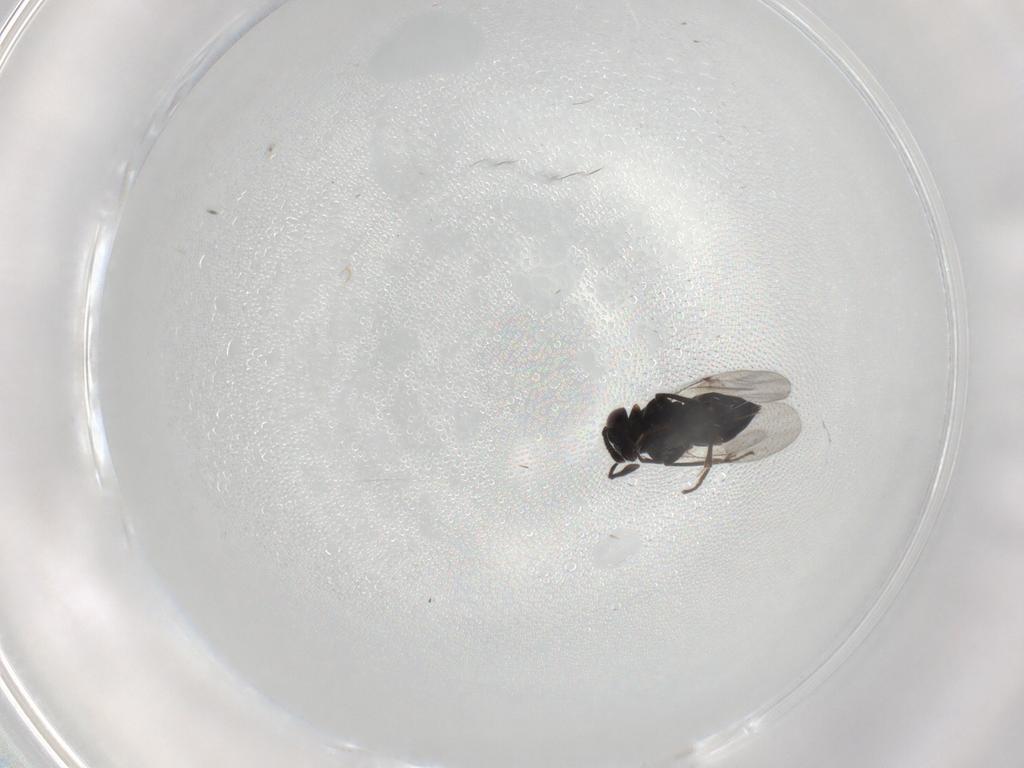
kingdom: Animalia
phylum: Arthropoda
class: Insecta
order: Hymenoptera
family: Encyrtidae
